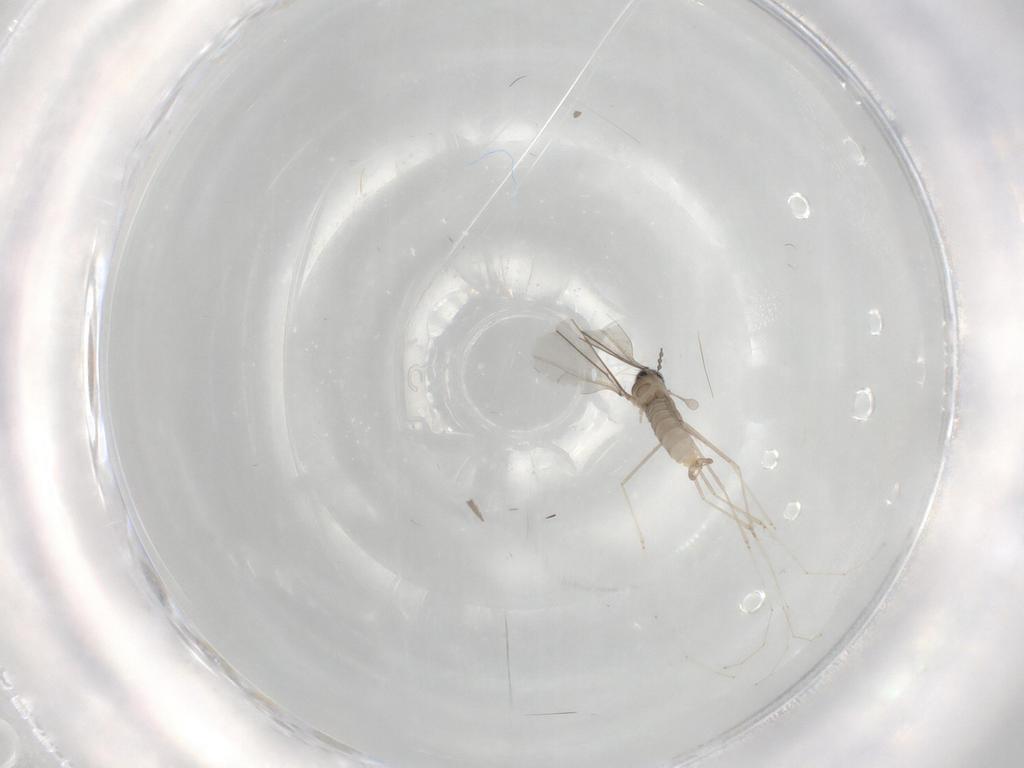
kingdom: Animalia
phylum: Arthropoda
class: Insecta
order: Diptera
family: Cecidomyiidae
